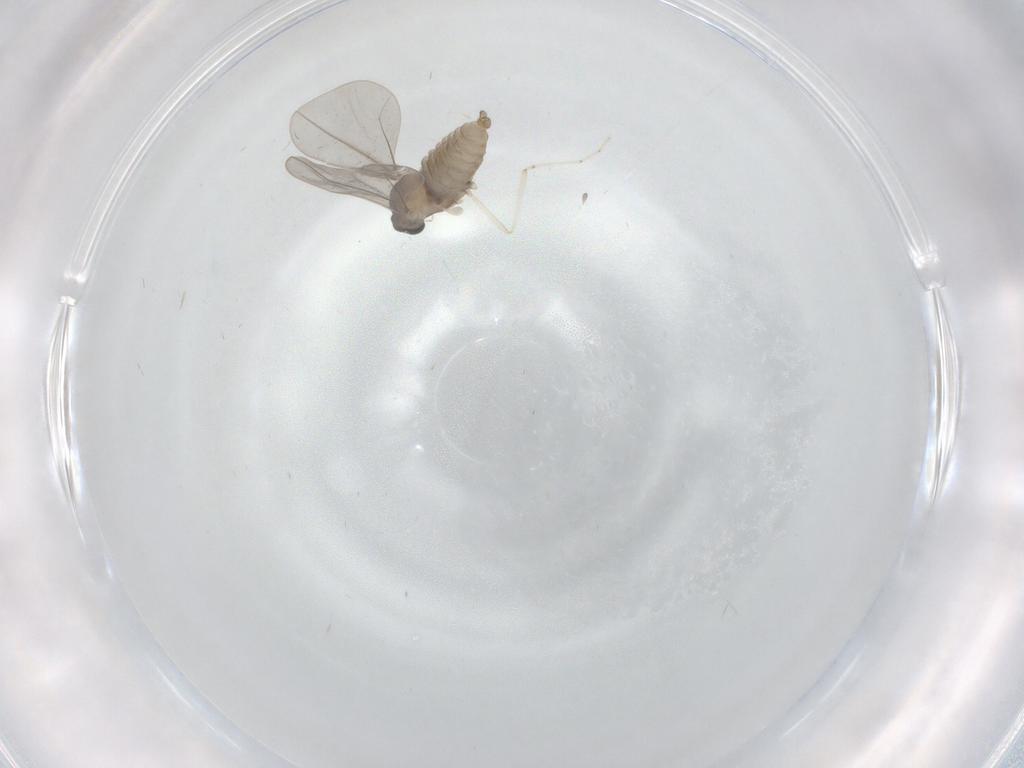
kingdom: Animalia
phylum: Arthropoda
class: Insecta
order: Diptera
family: Cecidomyiidae
